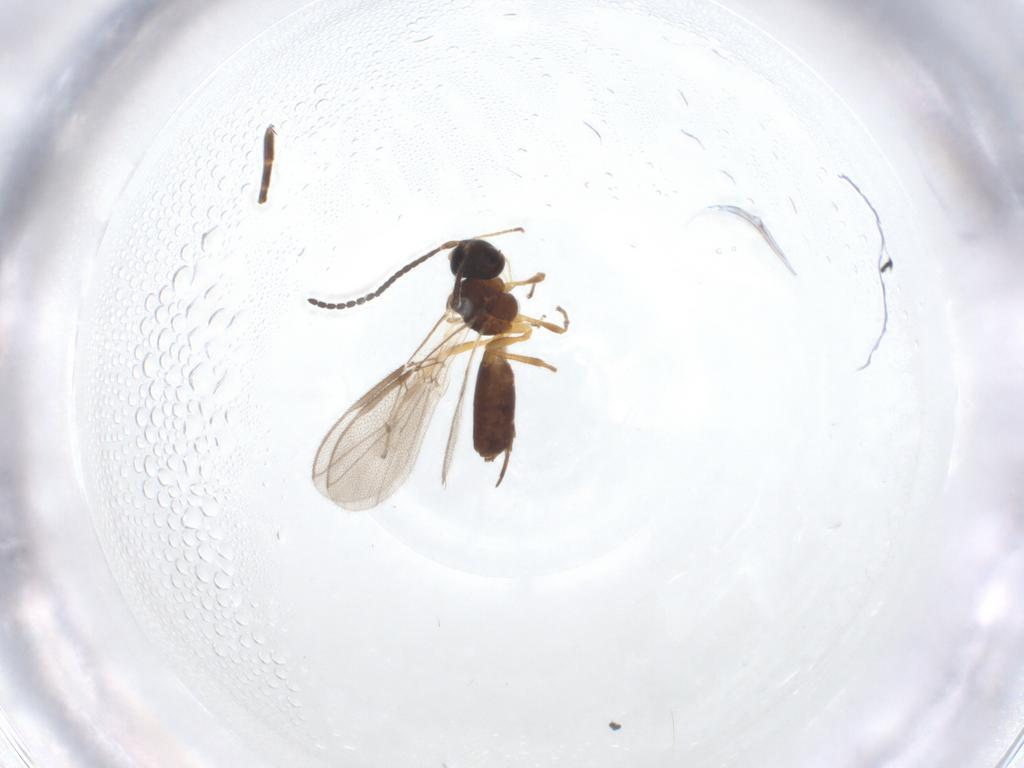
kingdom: Animalia
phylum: Arthropoda
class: Insecta
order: Hymenoptera
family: Braconidae
